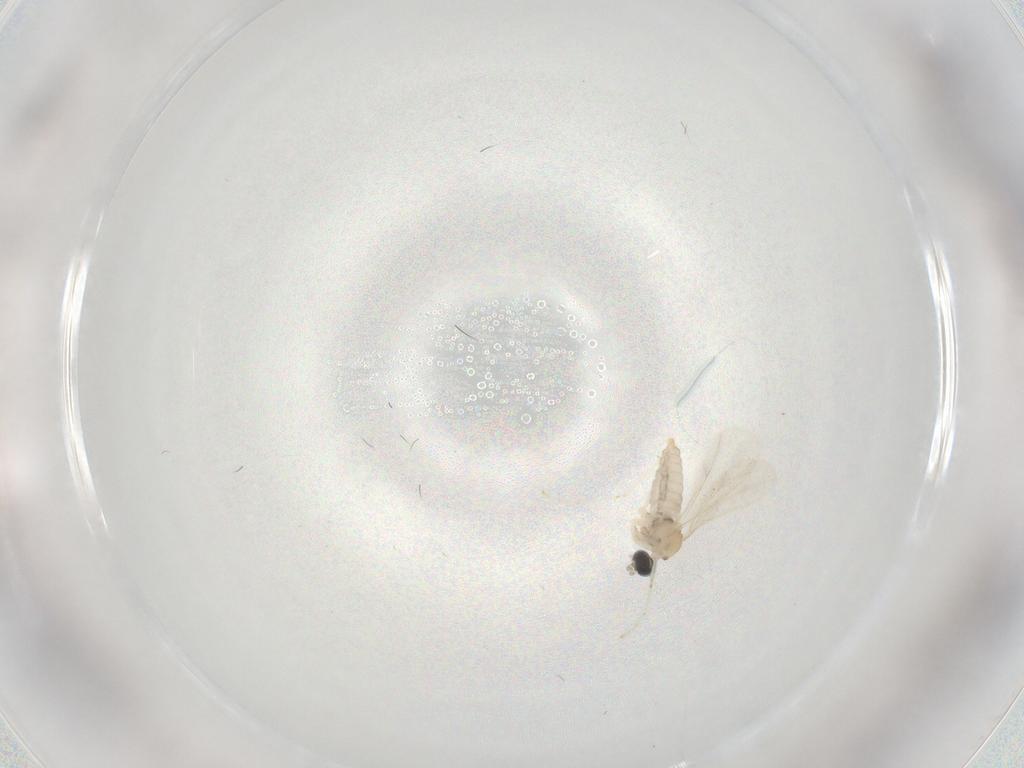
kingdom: Animalia
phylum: Arthropoda
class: Insecta
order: Diptera
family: Cecidomyiidae
